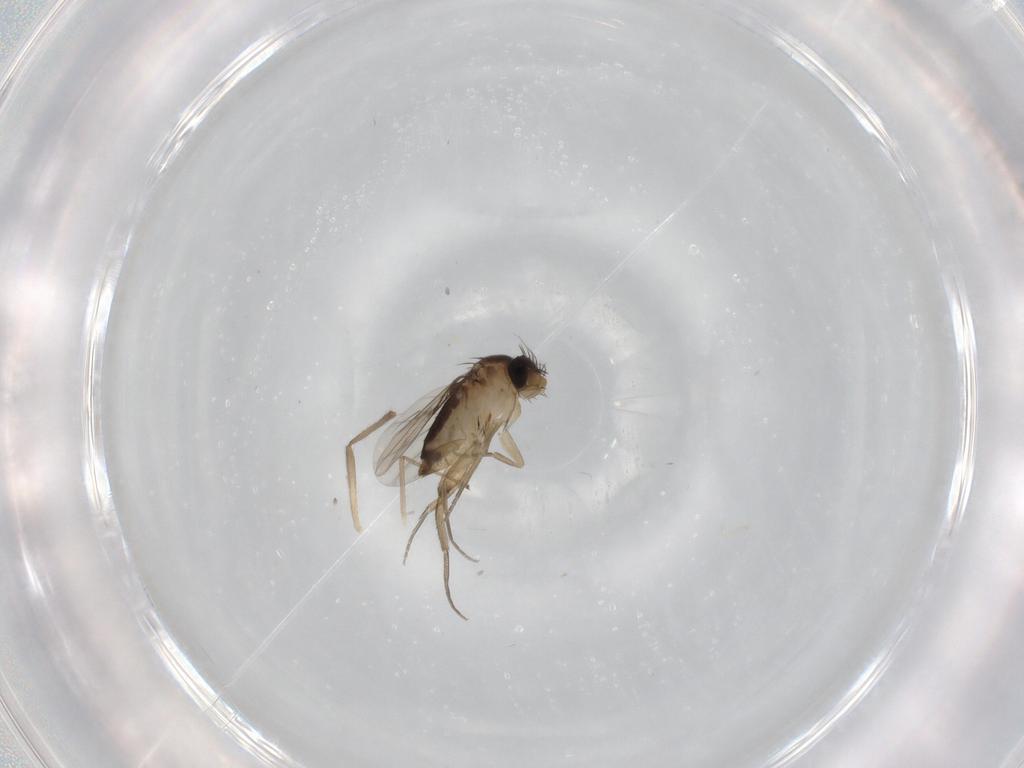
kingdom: Animalia
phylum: Arthropoda
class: Insecta
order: Diptera
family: Phoridae
